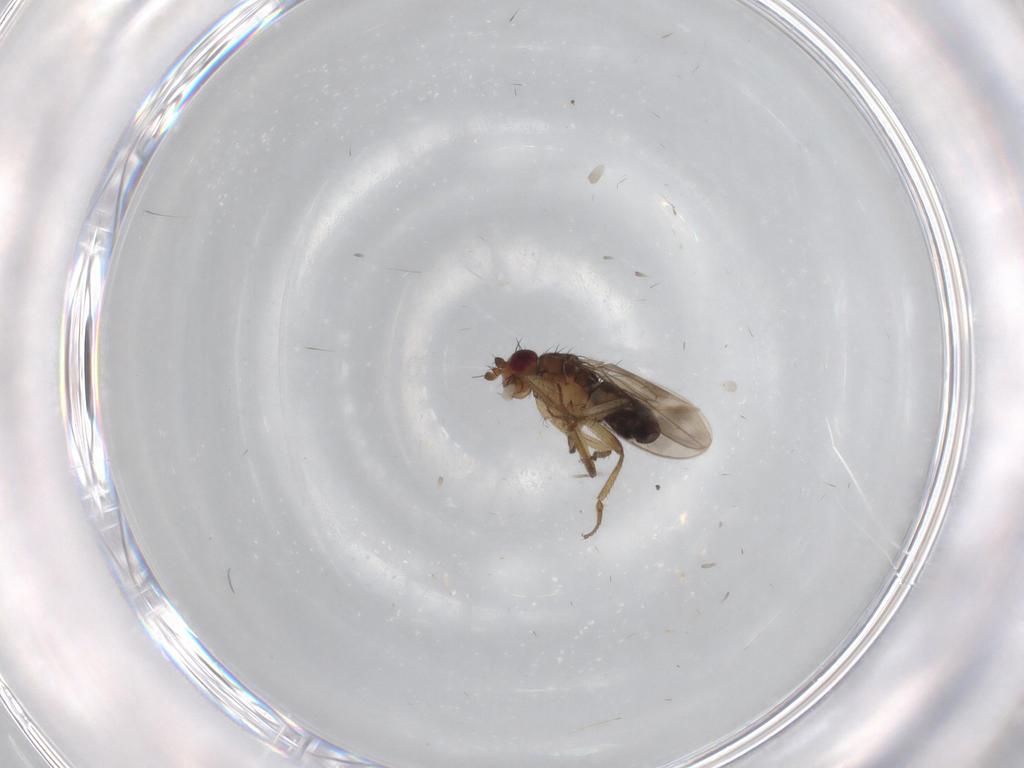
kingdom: Animalia
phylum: Arthropoda
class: Insecta
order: Diptera
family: Sphaeroceridae
